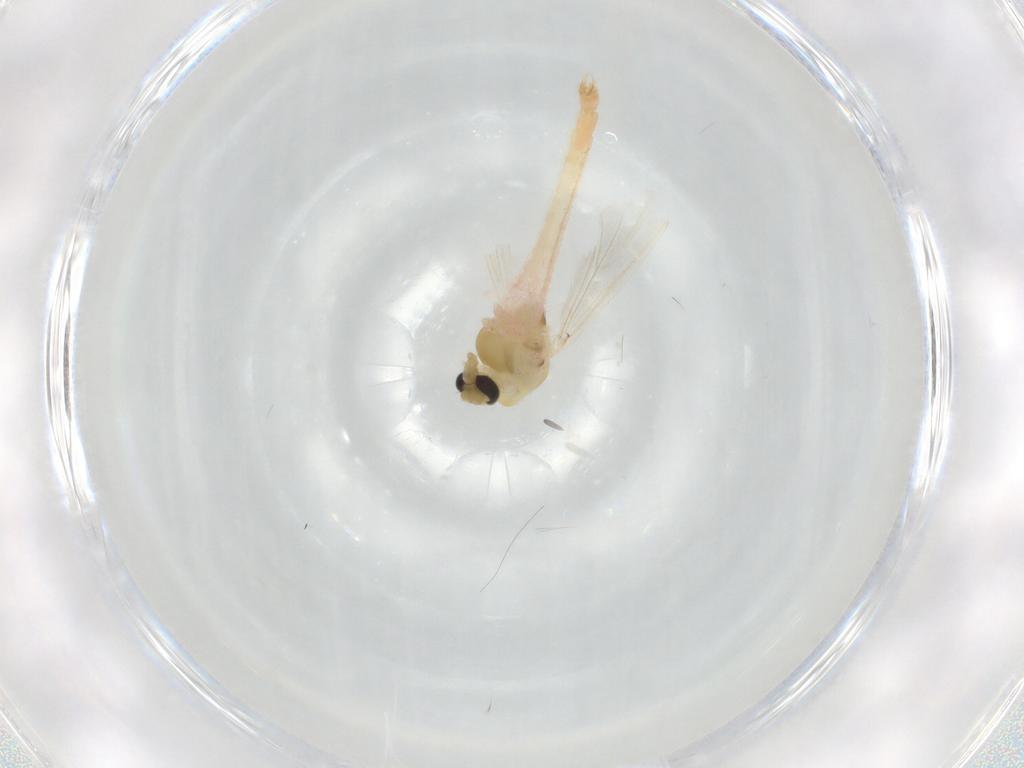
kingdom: Animalia
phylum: Arthropoda
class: Insecta
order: Diptera
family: Chironomidae
